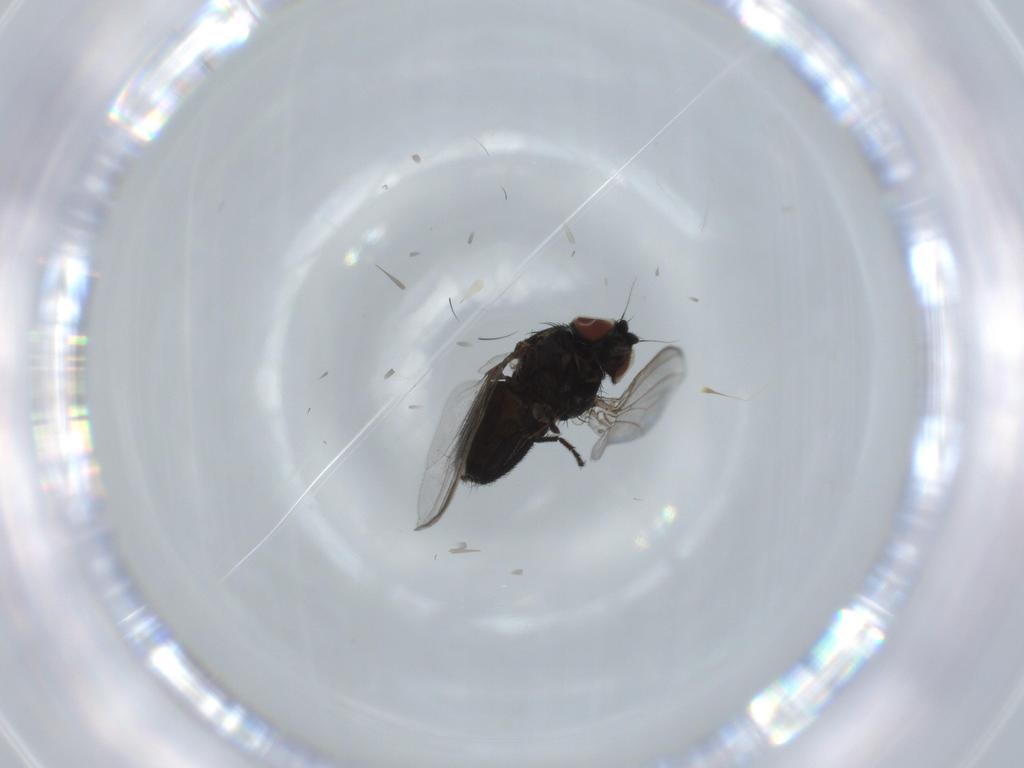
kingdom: Animalia
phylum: Arthropoda
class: Insecta
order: Diptera
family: Milichiidae
